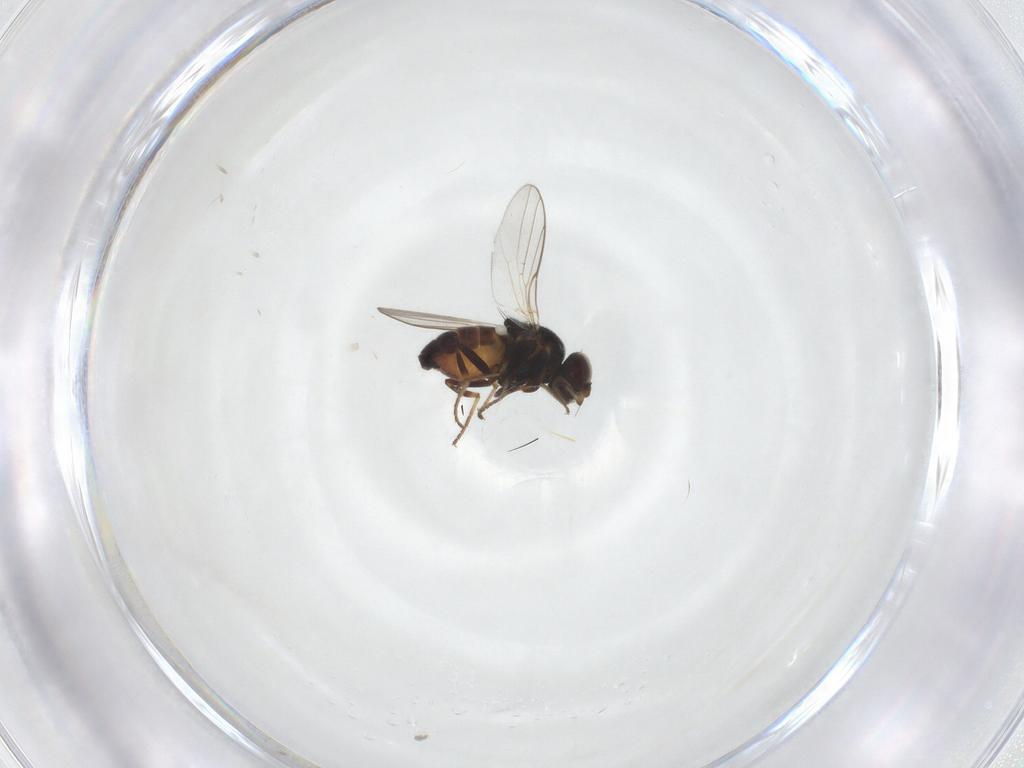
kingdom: Animalia
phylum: Arthropoda
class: Insecta
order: Diptera
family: Chloropidae
